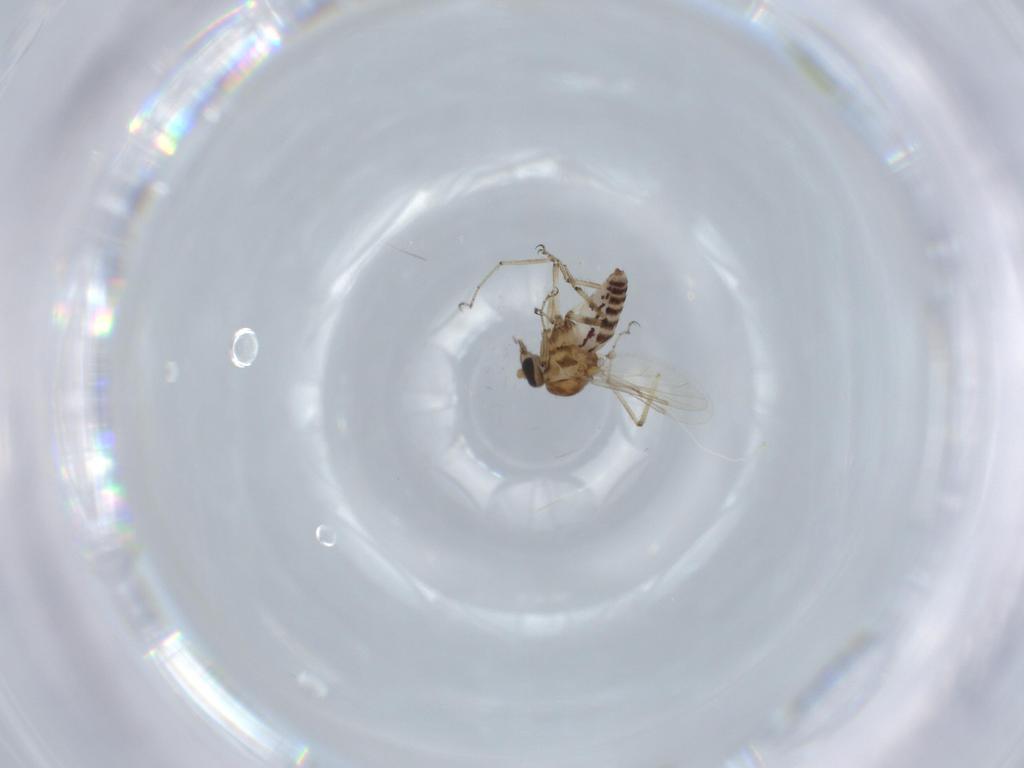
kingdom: Animalia
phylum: Arthropoda
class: Insecta
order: Diptera
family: Ceratopogonidae
